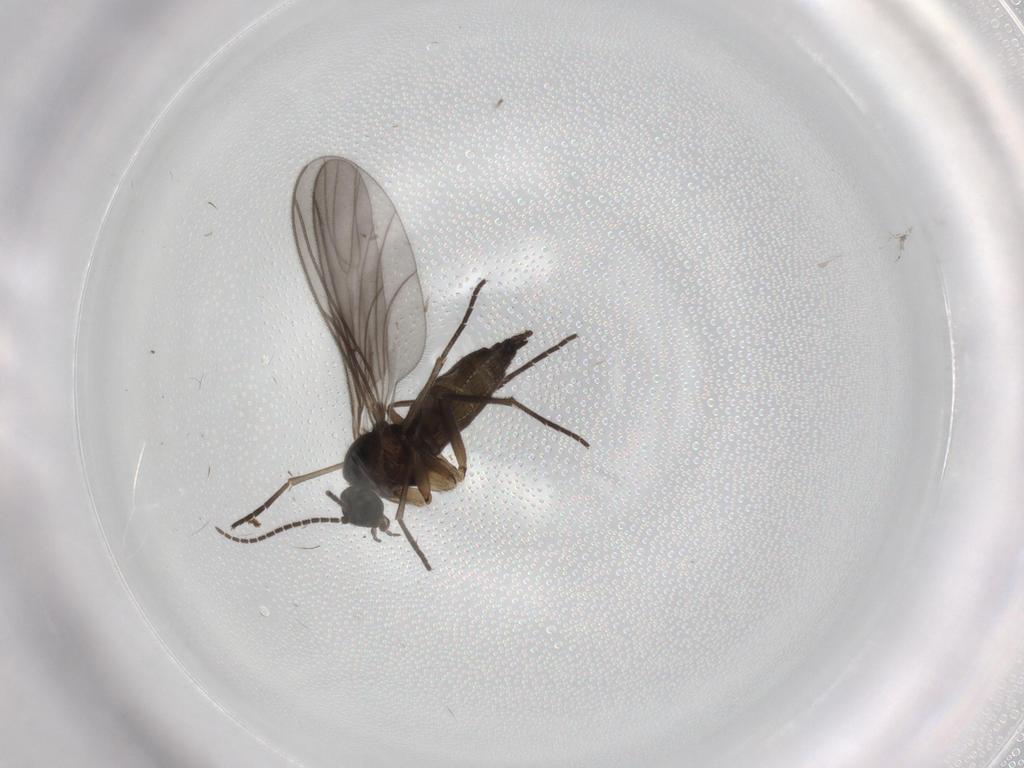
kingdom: Animalia
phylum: Arthropoda
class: Insecta
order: Diptera
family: Sciaridae
